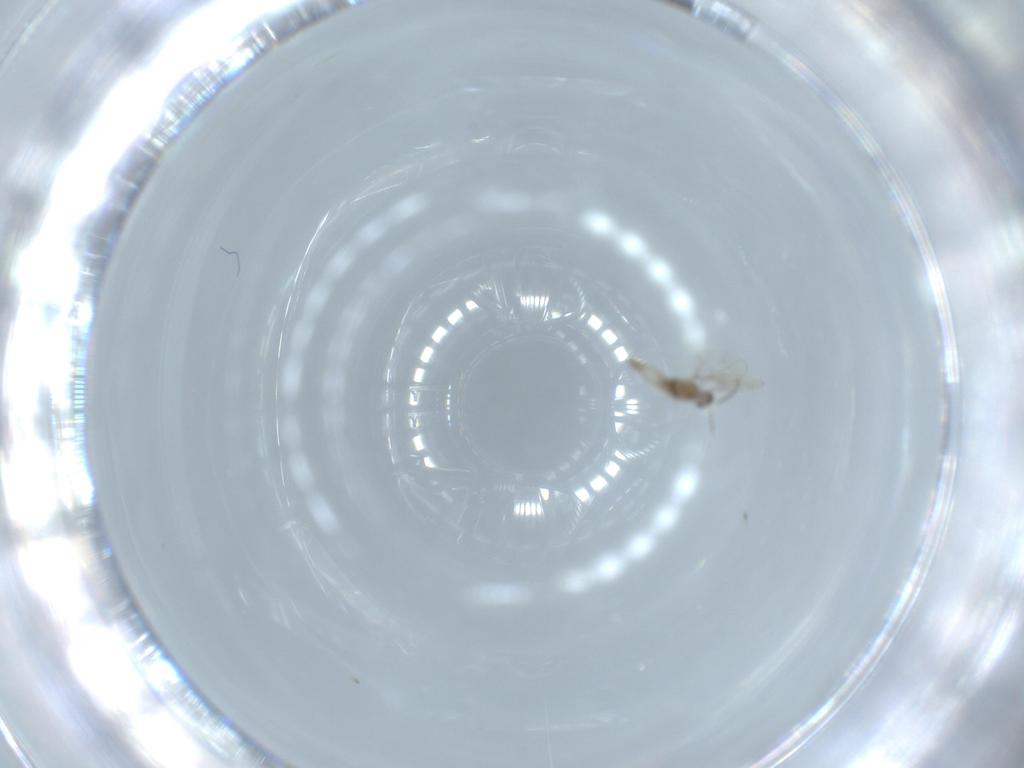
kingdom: Animalia
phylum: Arthropoda
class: Insecta
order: Diptera
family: Cecidomyiidae
